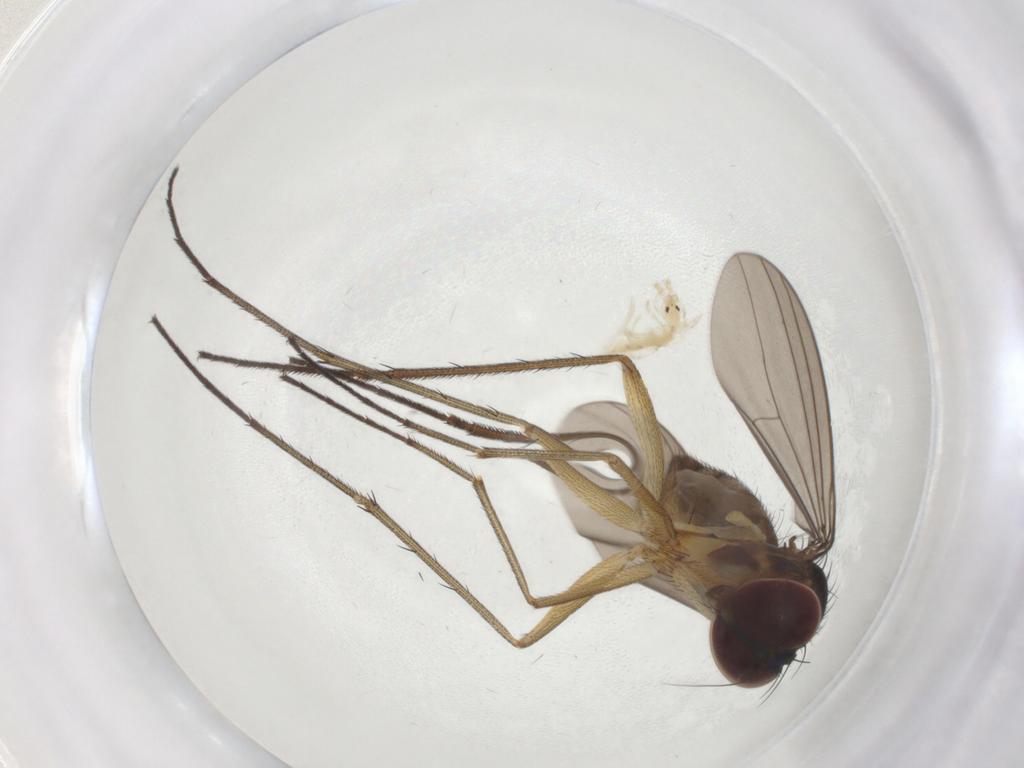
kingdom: Animalia
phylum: Arthropoda
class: Insecta
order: Diptera
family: Dolichopodidae
